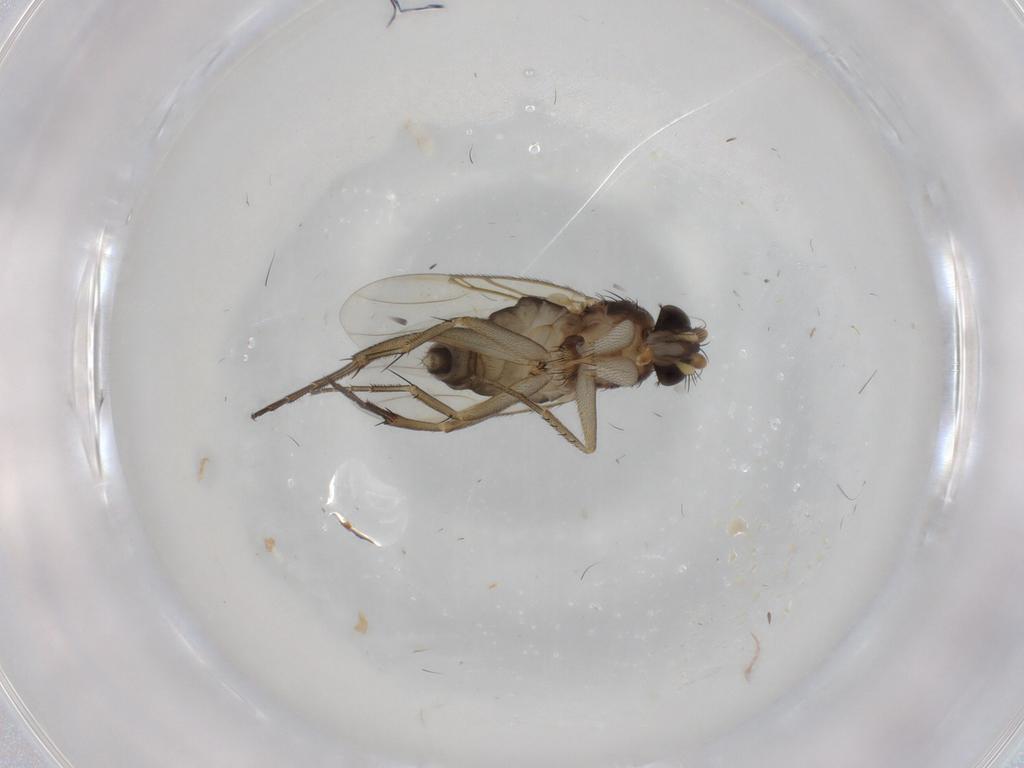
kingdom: Animalia
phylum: Arthropoda
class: Insecta
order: Diptera
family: Phoridae
